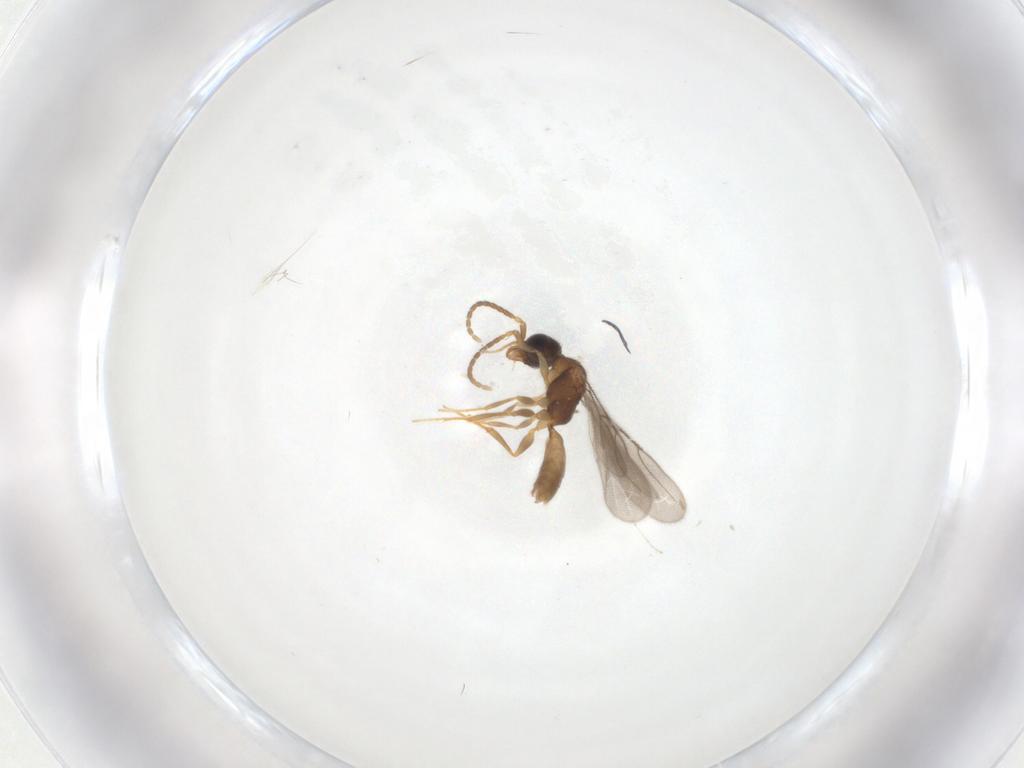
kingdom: Animalia
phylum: Arthropoda
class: Insecta
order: Hymenoptera
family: Bethylidae
